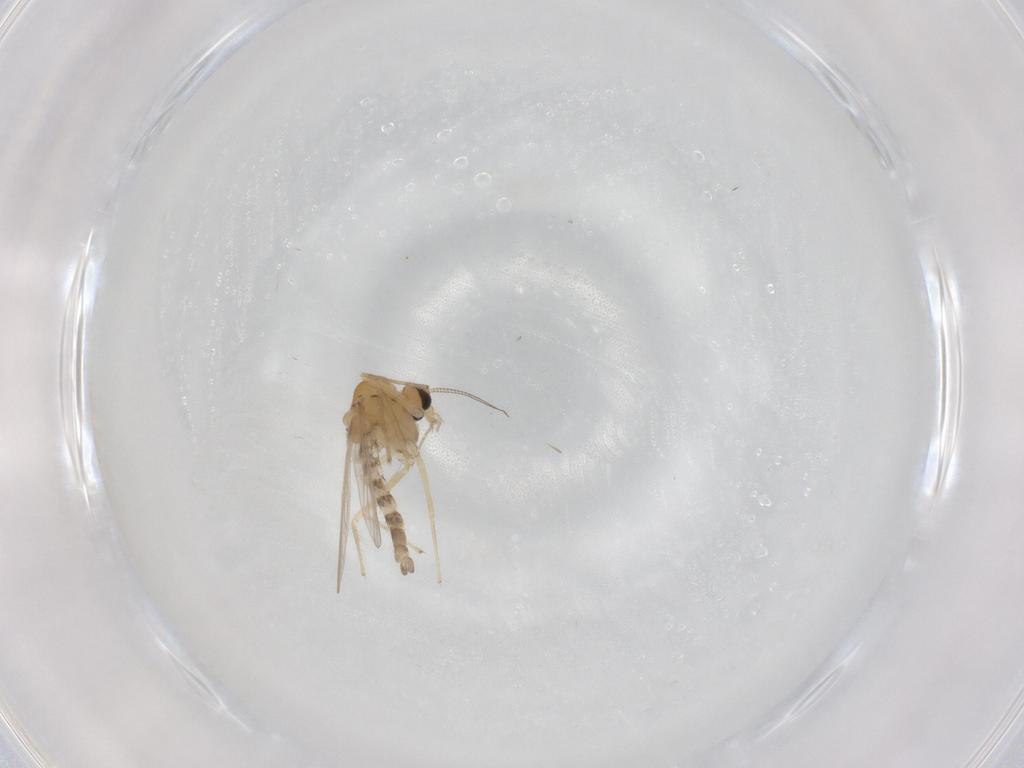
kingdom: Animalia
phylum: Arthropoda
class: Insecta
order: Diptera
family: Chironomidae
